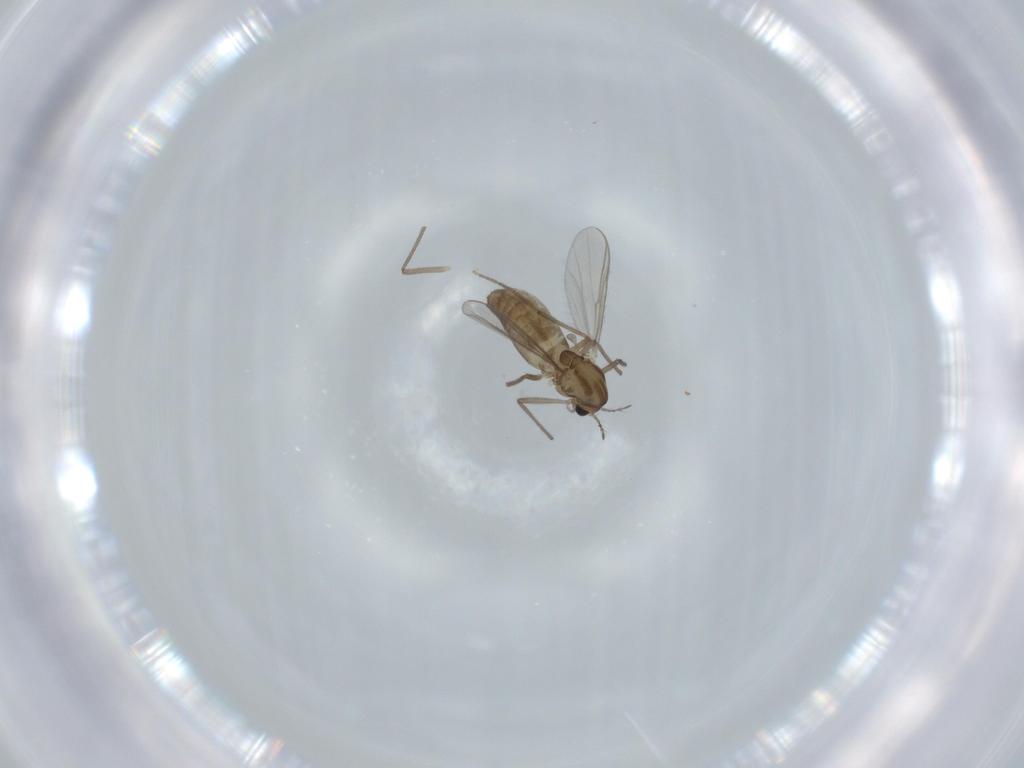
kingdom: Animalia
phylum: Arthropoda
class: Insecta
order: Diptera
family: Chironomidae
